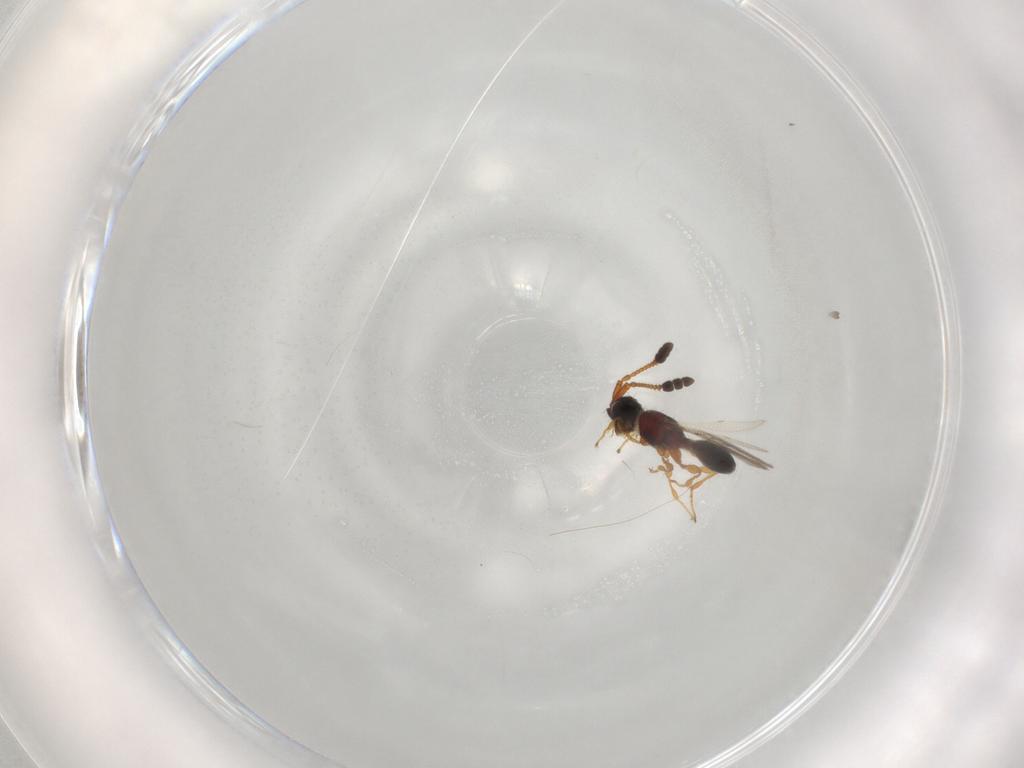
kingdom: Animalia
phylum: Arthropoda
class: Insecta
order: Hymenoptera
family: Diapriidae
